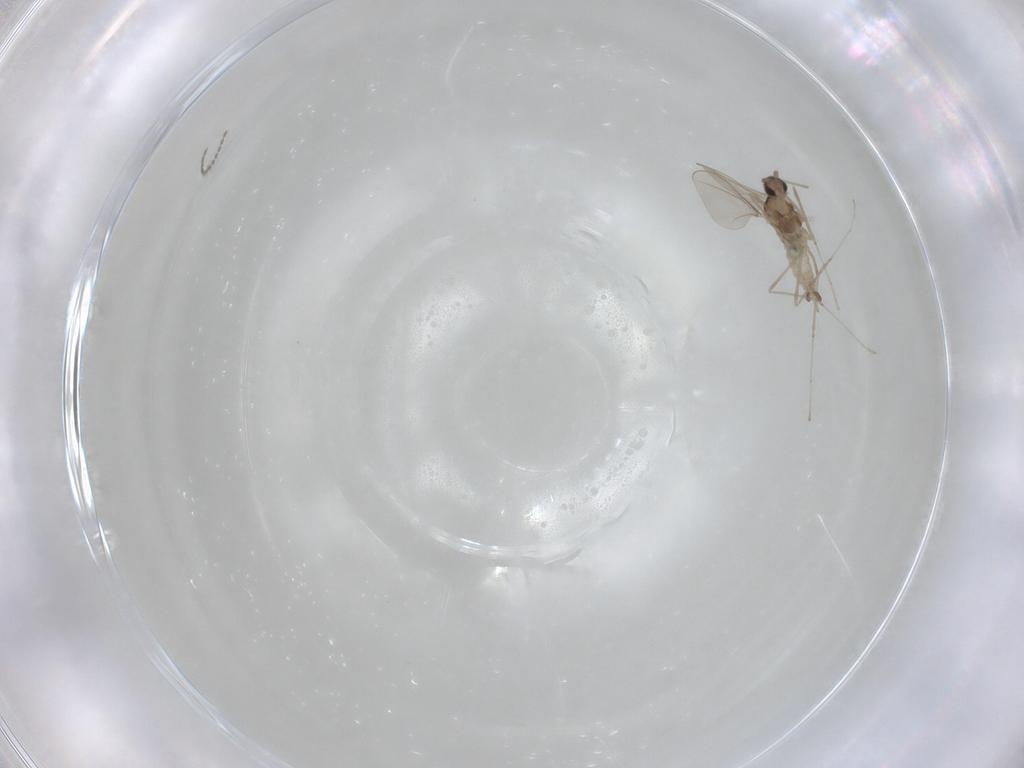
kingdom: Animalia
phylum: Arthropoda
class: Insecta
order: Diptera
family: Cecidomyiidae
